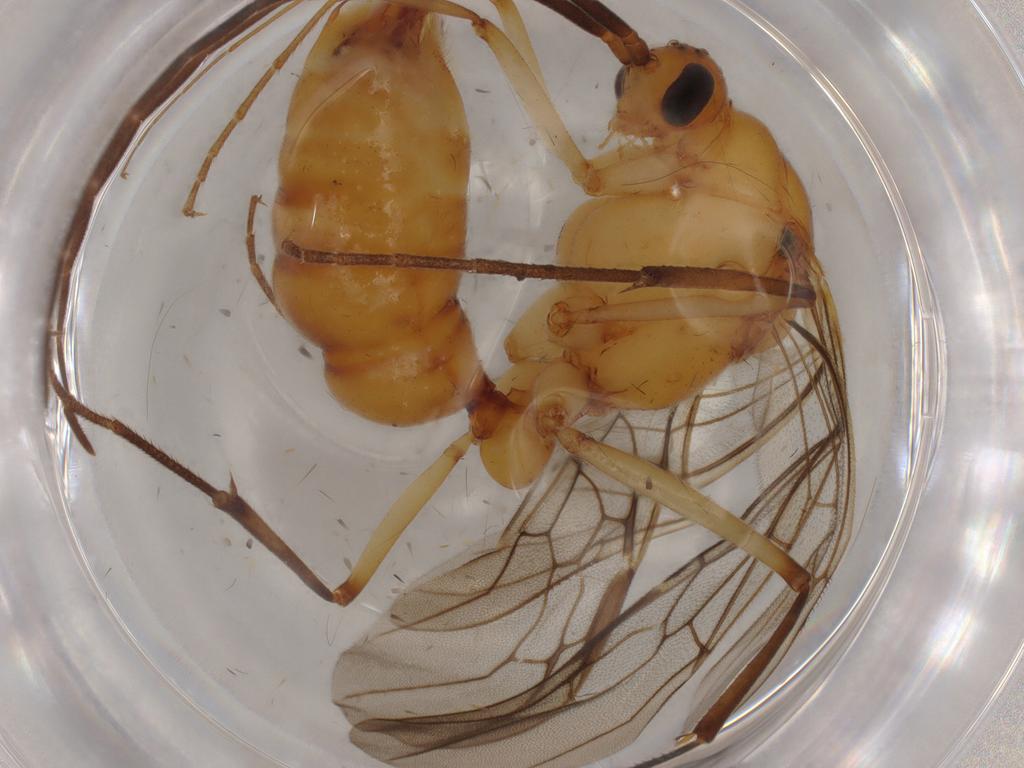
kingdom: Animalia
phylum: Arthropoda
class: Insecta
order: Hymenoptera
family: Formicidae
